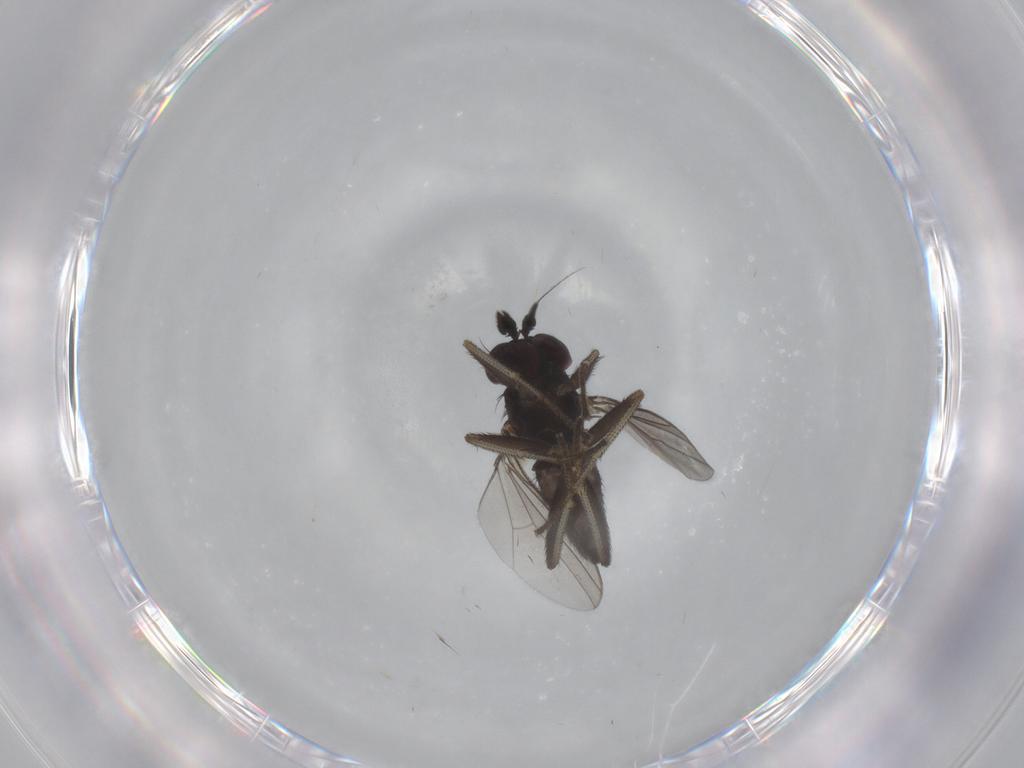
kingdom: Animalia
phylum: Arthropoda
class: Insecta
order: Diptera
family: Dolichopodidae
